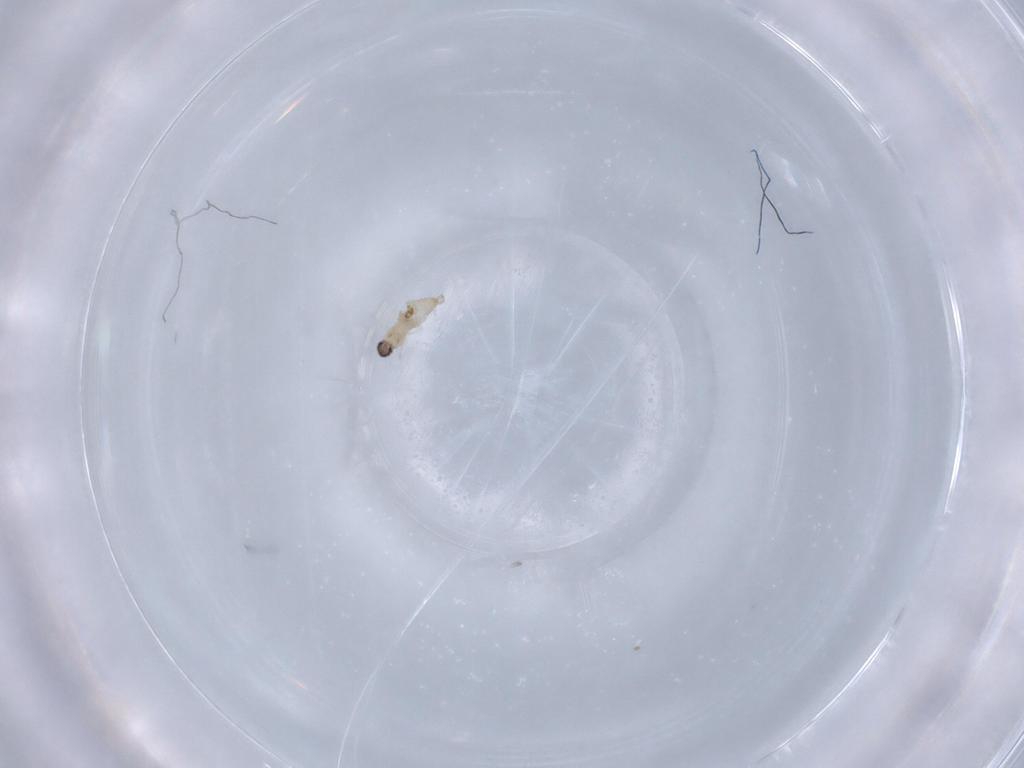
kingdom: Animalia
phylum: Arthropoda
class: Insecta
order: Diptera
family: Cecidomyiidae
